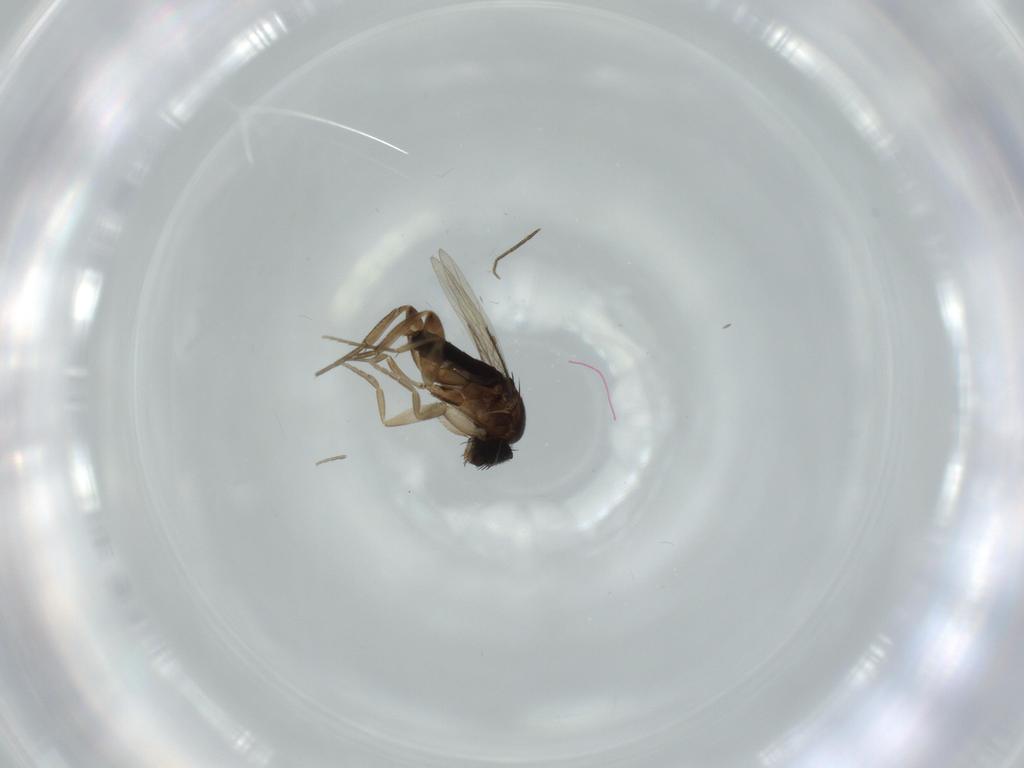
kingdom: Animalia
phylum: Arthropoda
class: Insecta
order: Diptera
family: Phoridae
